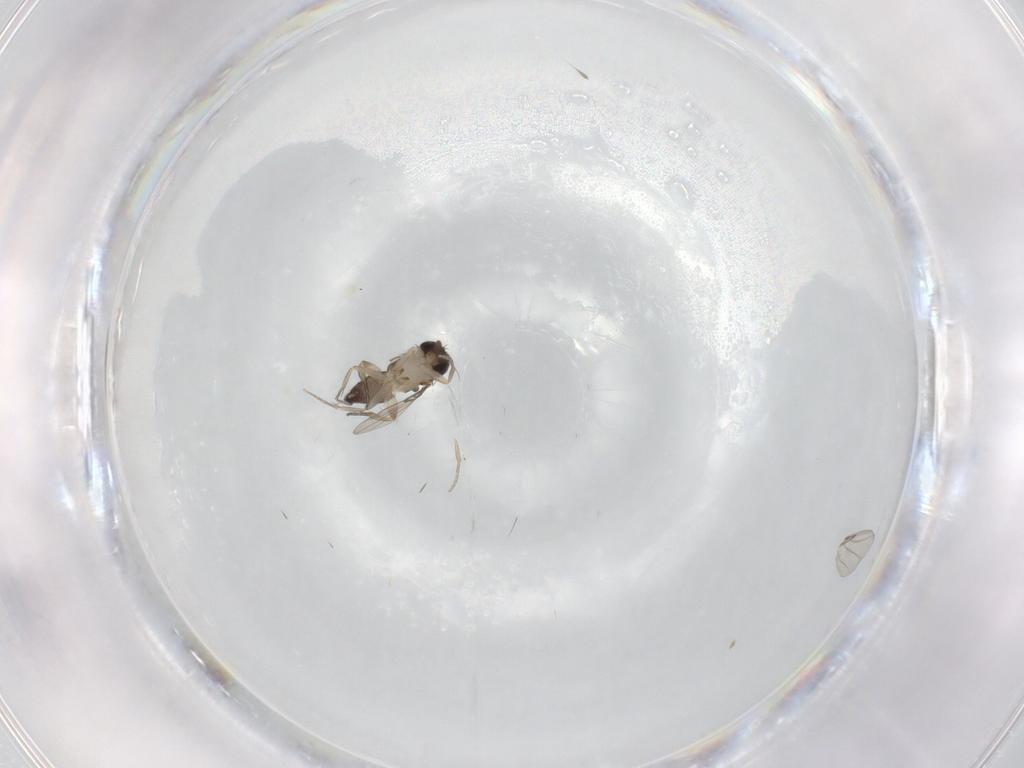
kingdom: Animalia
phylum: Arthropoda
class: Insecta
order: Diptera
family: Phoridae
